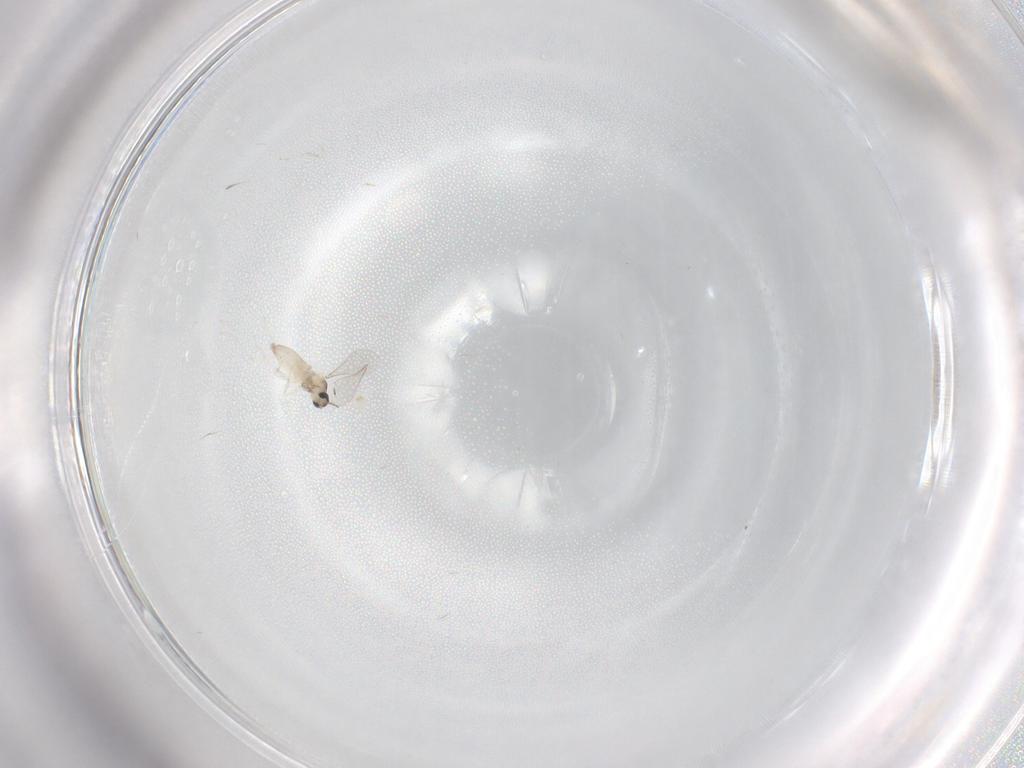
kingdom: Animalia
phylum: Arthropoda
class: Insecta
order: Diptera
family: Cecidomyiidae
